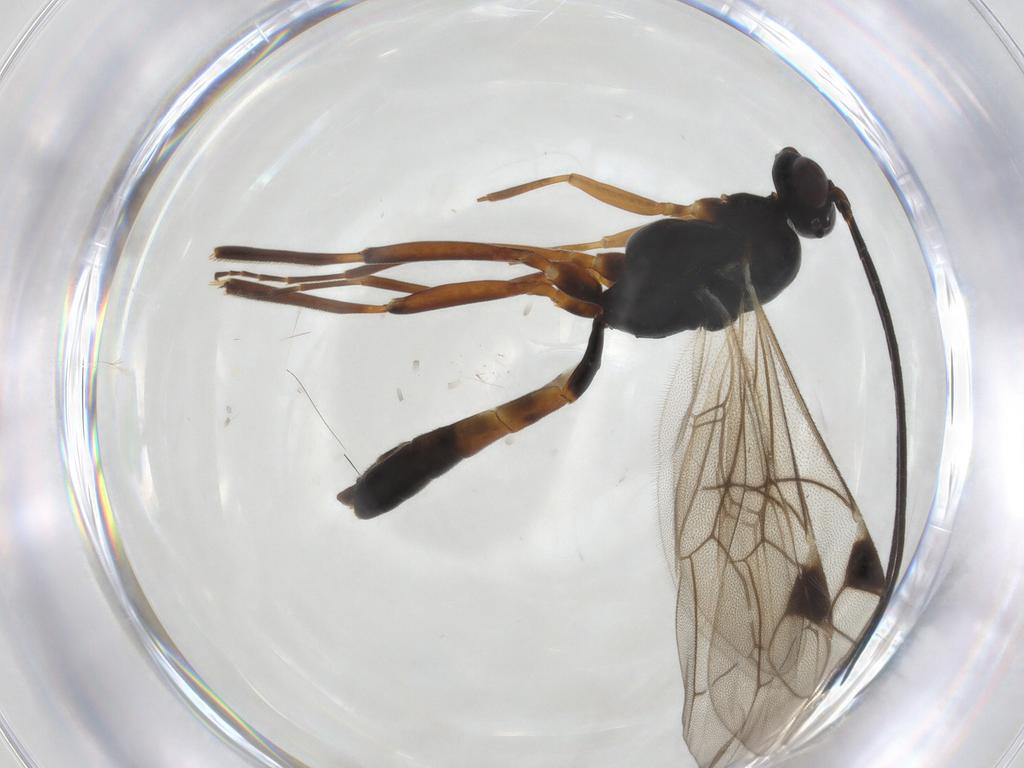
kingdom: Animalia
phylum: Arthropoda
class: Insecta
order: Hymenoptera
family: Ichneumonidae
